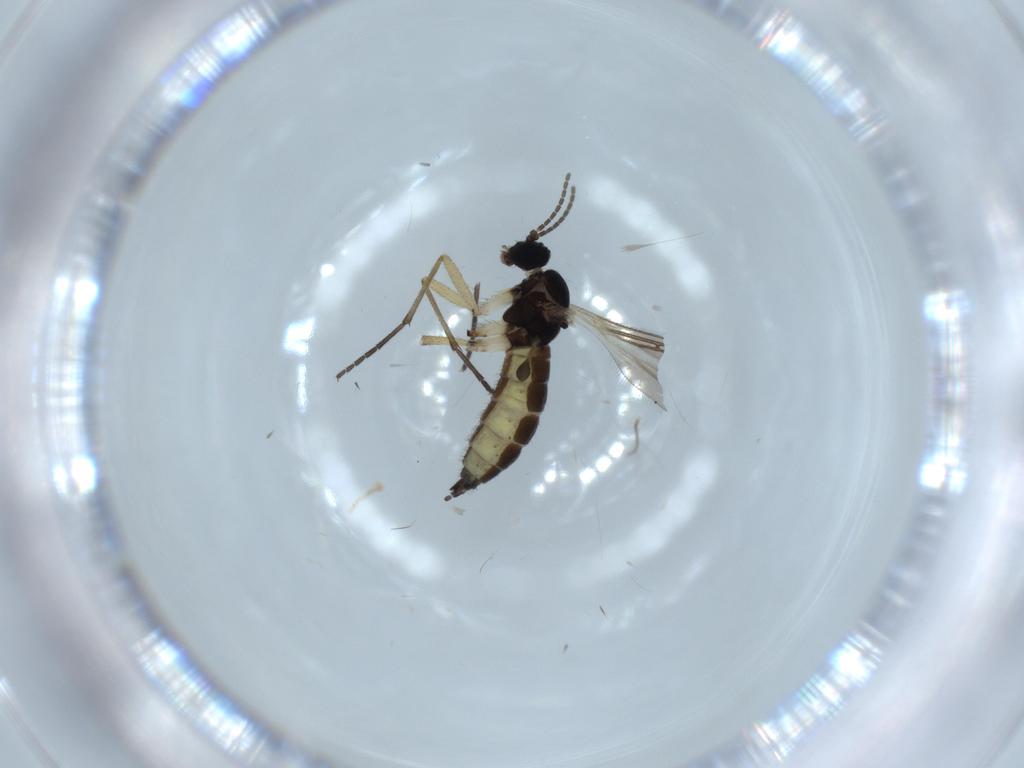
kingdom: Animalia
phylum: Arthropoda
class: Insecta
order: Diptera
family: Sciaridae
